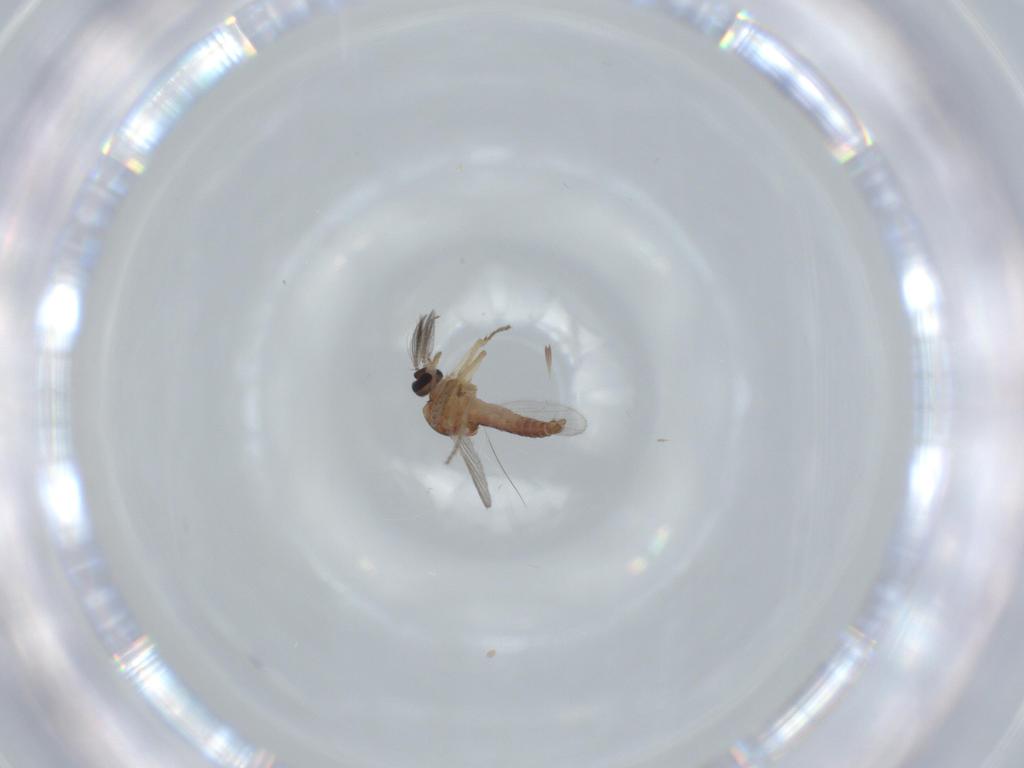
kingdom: Animalia
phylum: Arthropoda
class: Insecta
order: Diptera
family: Ceratopogonidae
